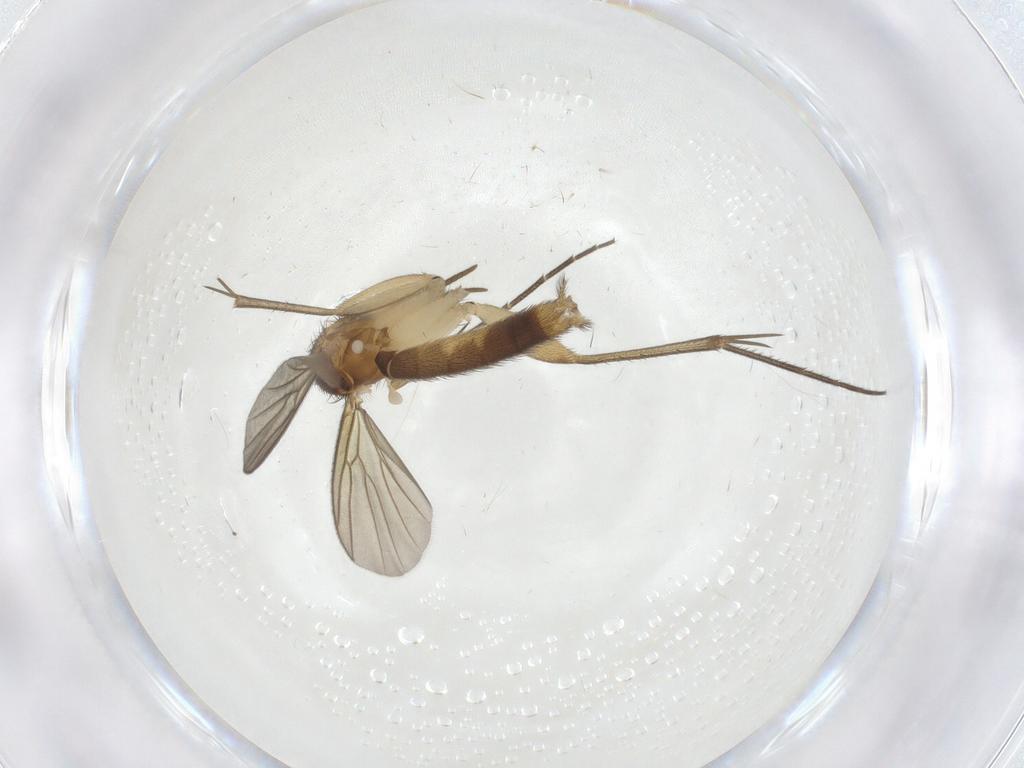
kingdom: Animalia
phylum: Arthropoda
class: Insecta
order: Diptera
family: Mycetophilidae
